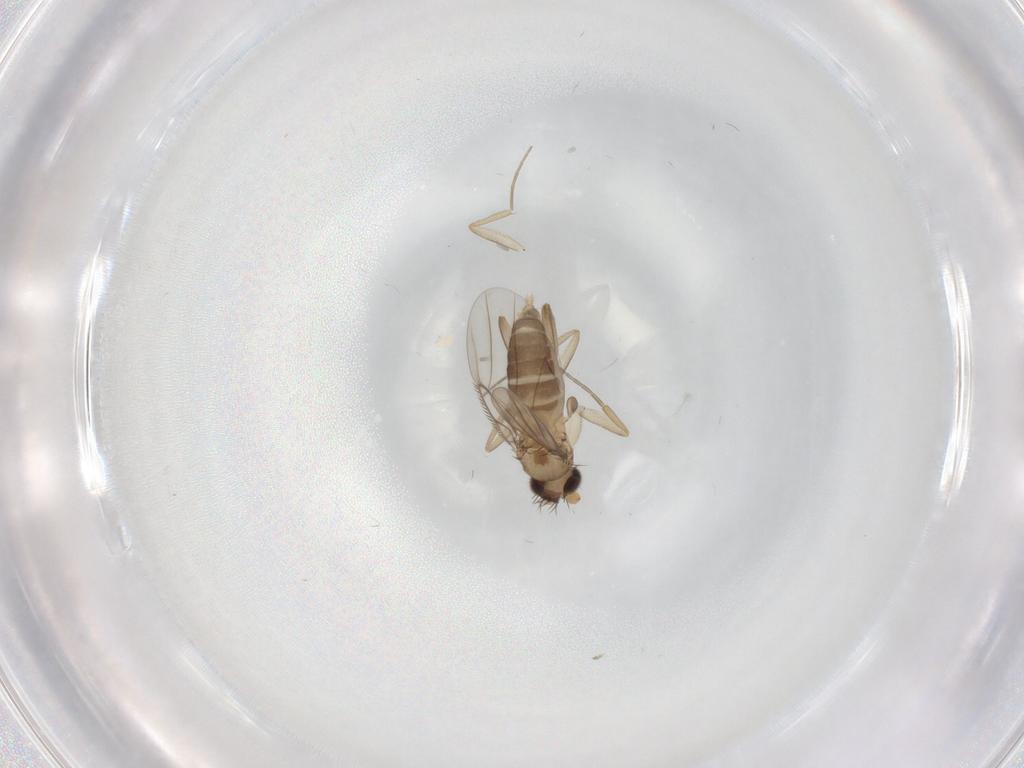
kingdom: Animalia
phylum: Arthropoda
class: Insecta
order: Diptera
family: Phoridae
